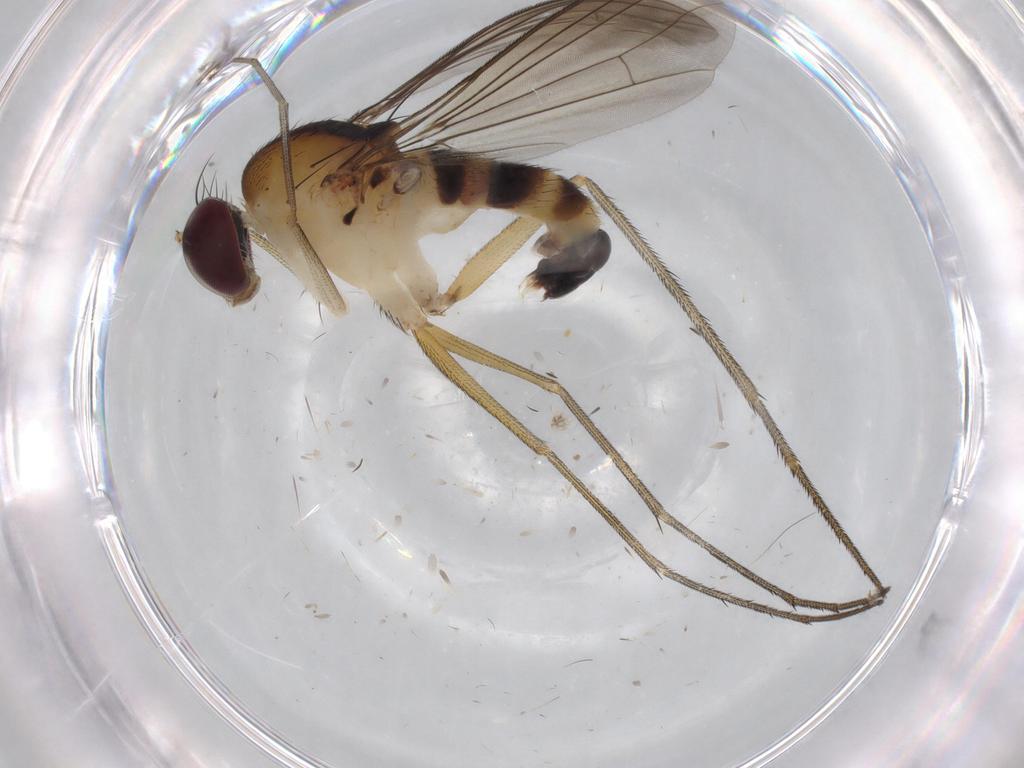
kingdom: Animalia
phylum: Arthropoda
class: Insecta
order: Diptera
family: Dolichopodidae
